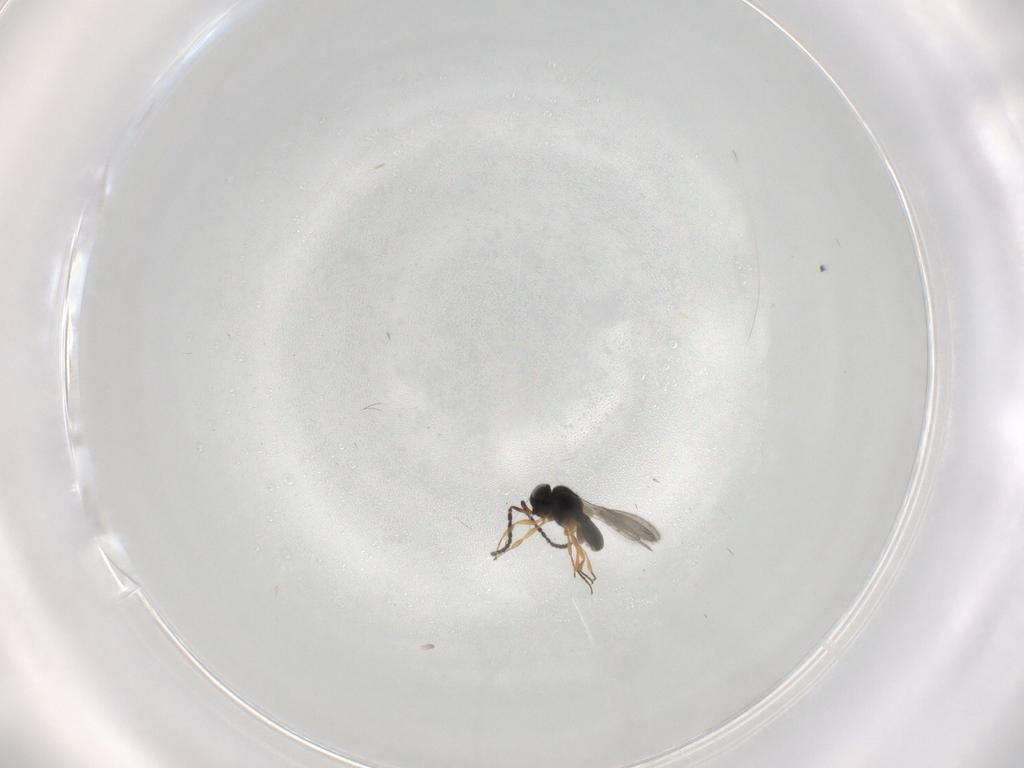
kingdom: Animalia
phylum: Arthropoda
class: Insecta
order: Hymenoptera
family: Scelionidae
